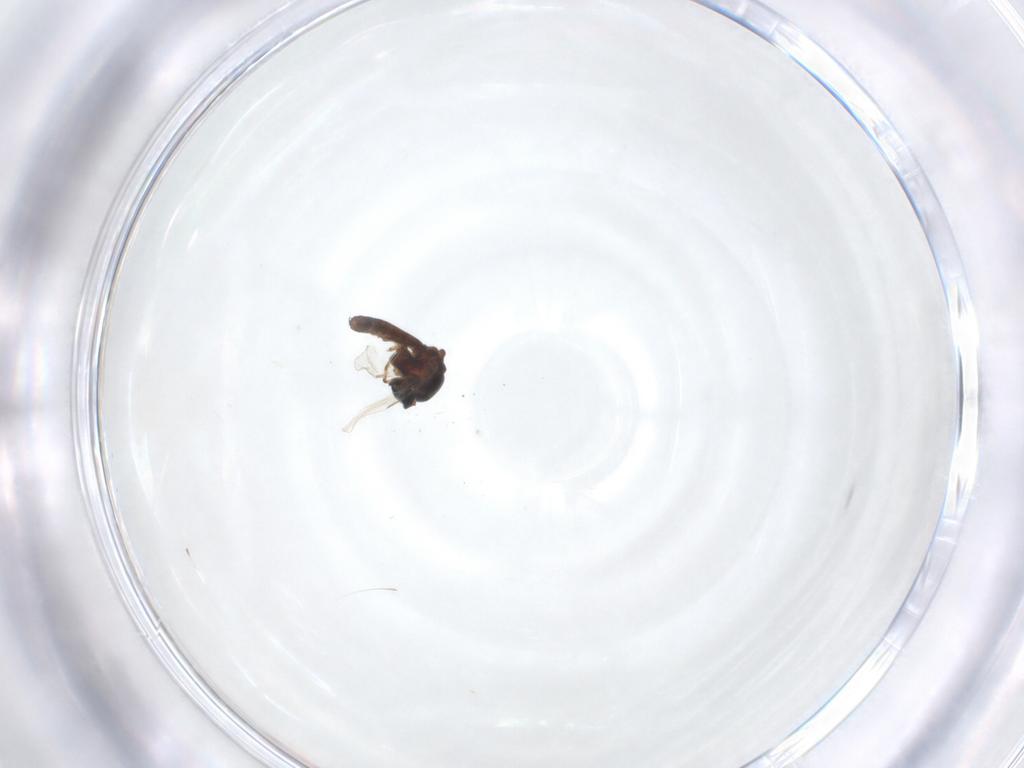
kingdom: Animalia
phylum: Arthropoda
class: Insecta
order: Diptera
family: Ceratopogonidae
